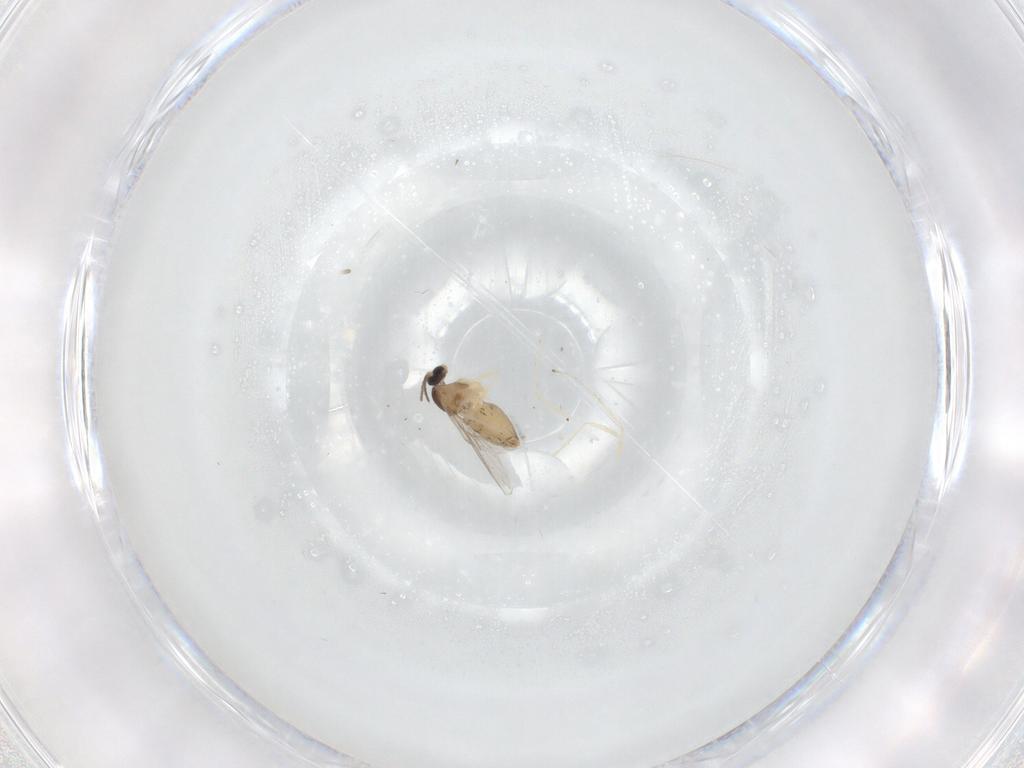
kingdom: Animalia
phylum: Arthropoda
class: Insecta
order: Diptera
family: Cecidomyiidae
